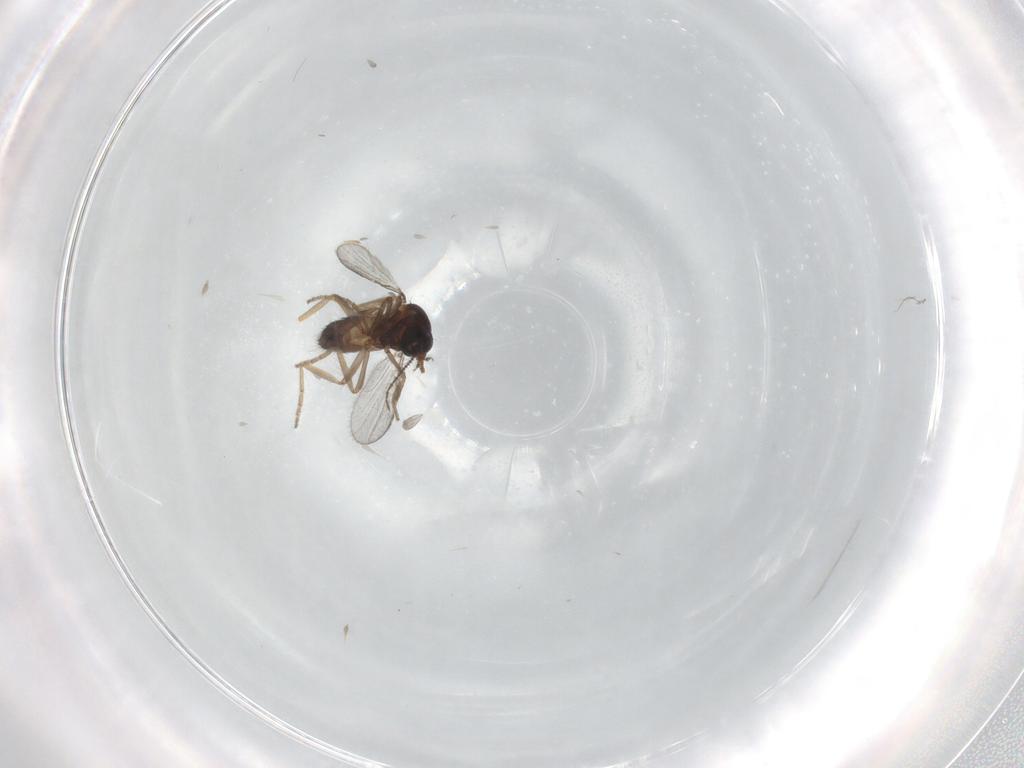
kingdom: Animalia
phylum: Arthropoda
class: Insecta
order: Diptera
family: Ceratopogonidae
